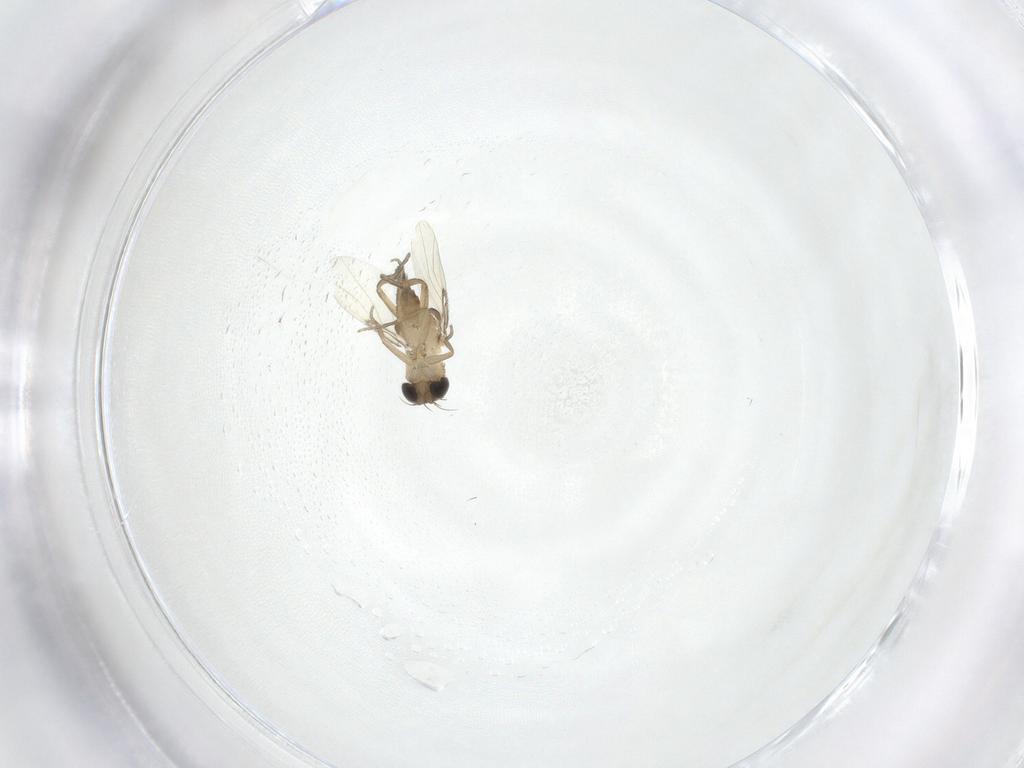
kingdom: Animalia
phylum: Arthropoda
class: Insecta
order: Diptera
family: Phoridae
